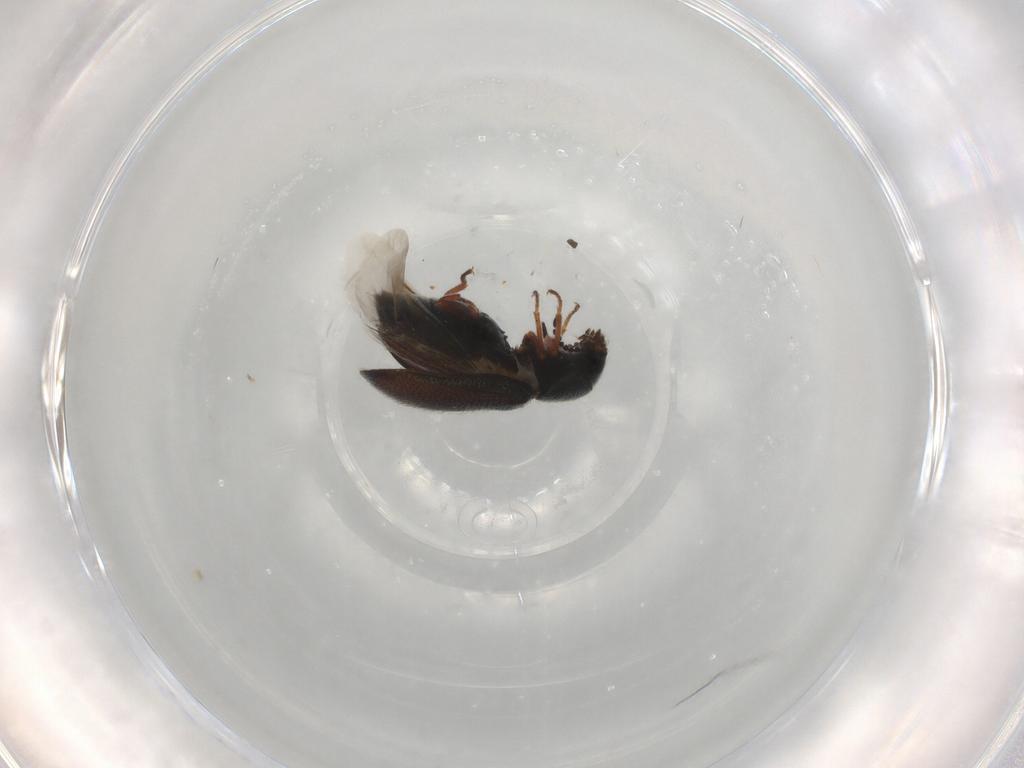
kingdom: Animalia
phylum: Arthropoda
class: Insecta
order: Coleoptera
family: Melyridae
